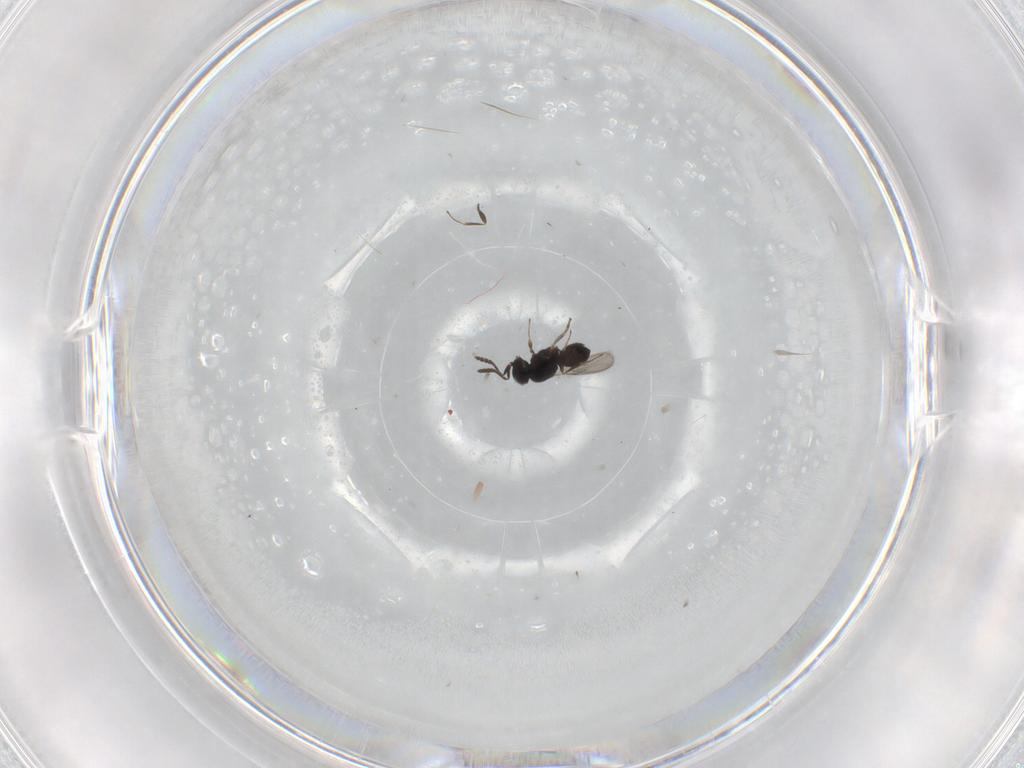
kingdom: Animalia
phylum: Arthropoda
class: Insecta
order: Hymenoptera
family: Scelionidae
